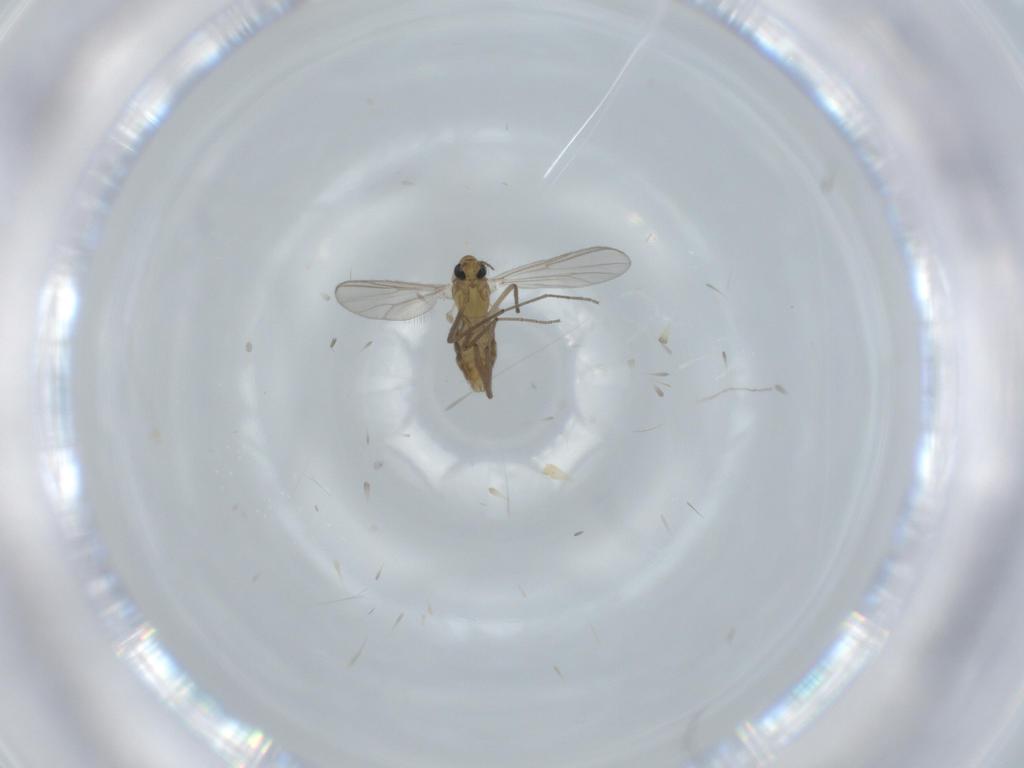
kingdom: Animalia
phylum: Arthropoda
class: Insecta
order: Diptera
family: Chironomidae
